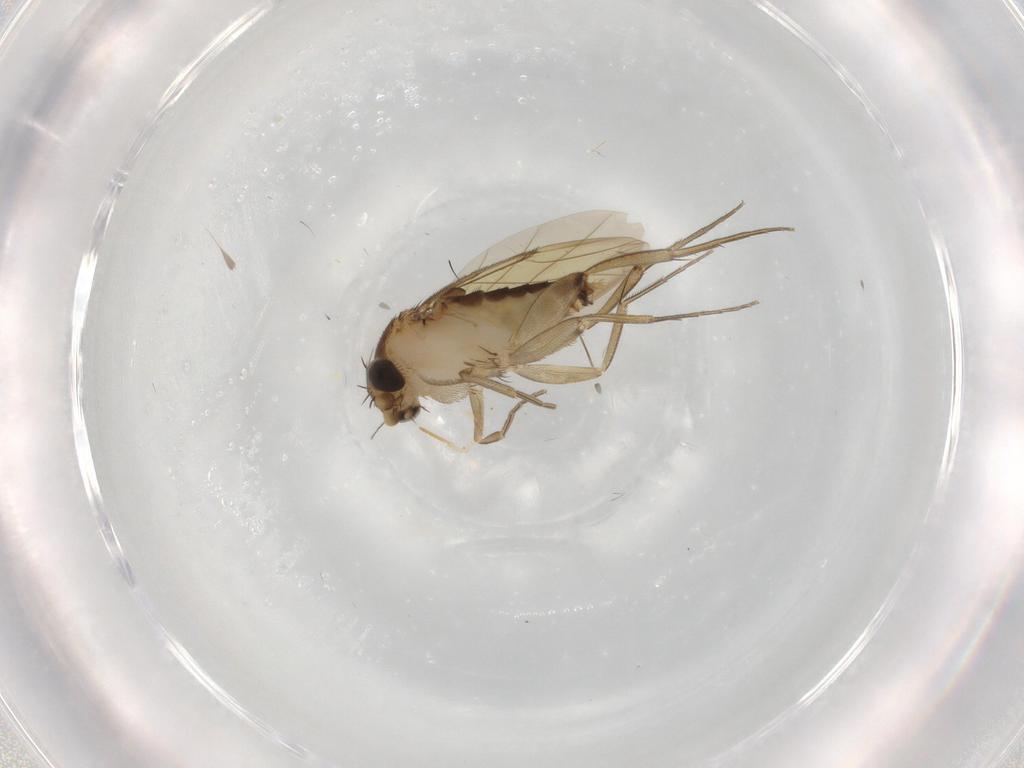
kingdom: Animalia
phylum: Arthropoda
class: Insecta
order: Diptera
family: Phoridae
